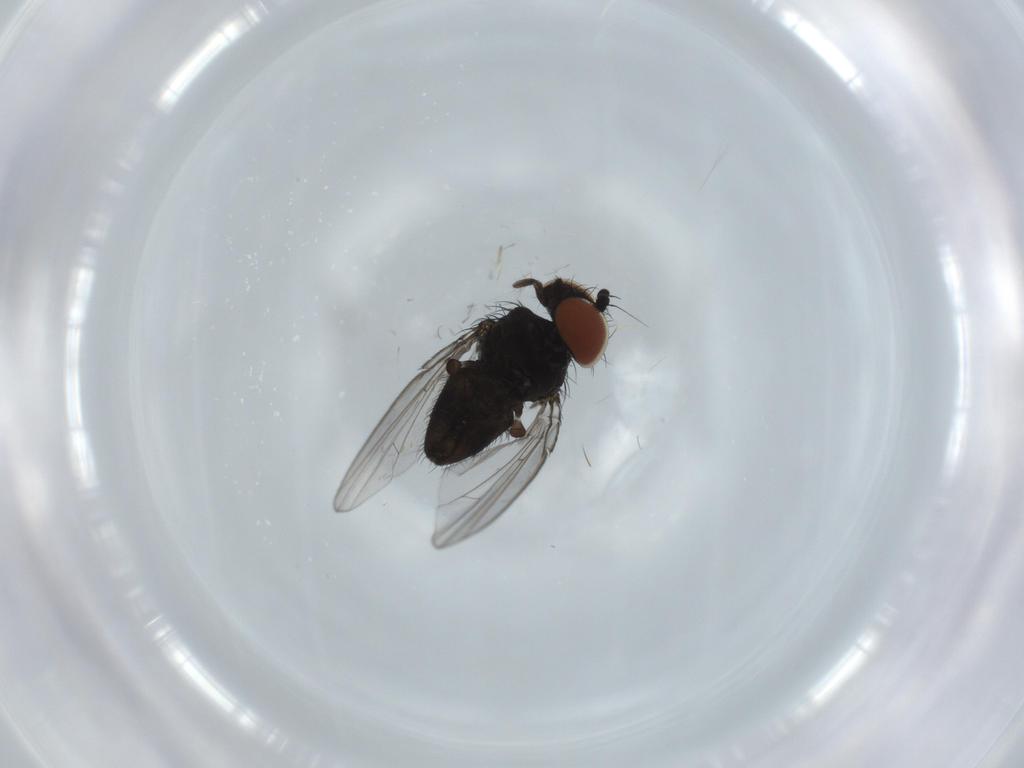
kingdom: Animalia
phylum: Arthropoda
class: Insecta
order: Diptera
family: Milichiidae
